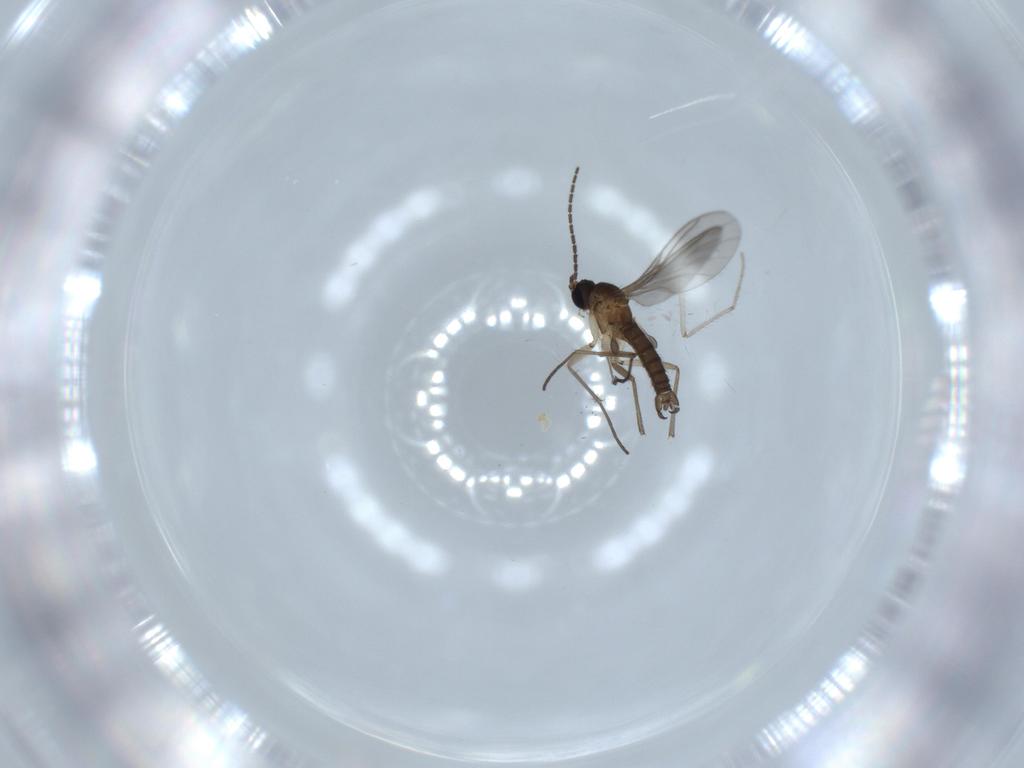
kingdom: Animalia
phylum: Arthropoda
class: Insecta
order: Diptera
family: Sciaridae
